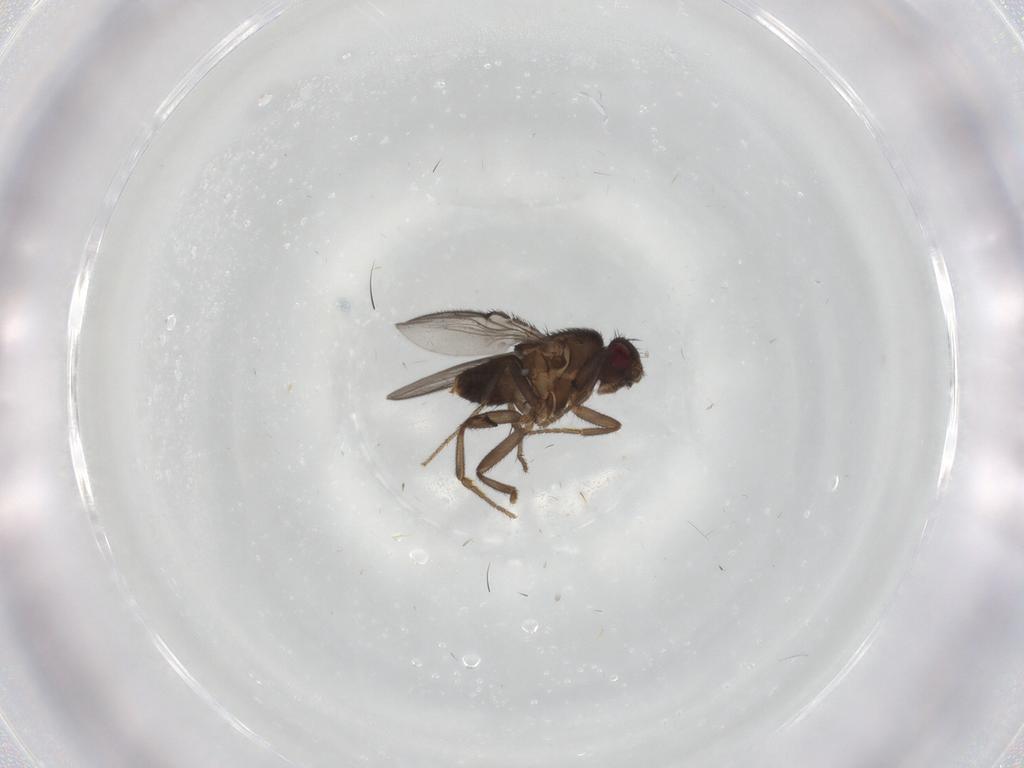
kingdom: Animalia
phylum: Arthropoda
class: Insecta
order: Diptera
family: Sphaeroceridae
